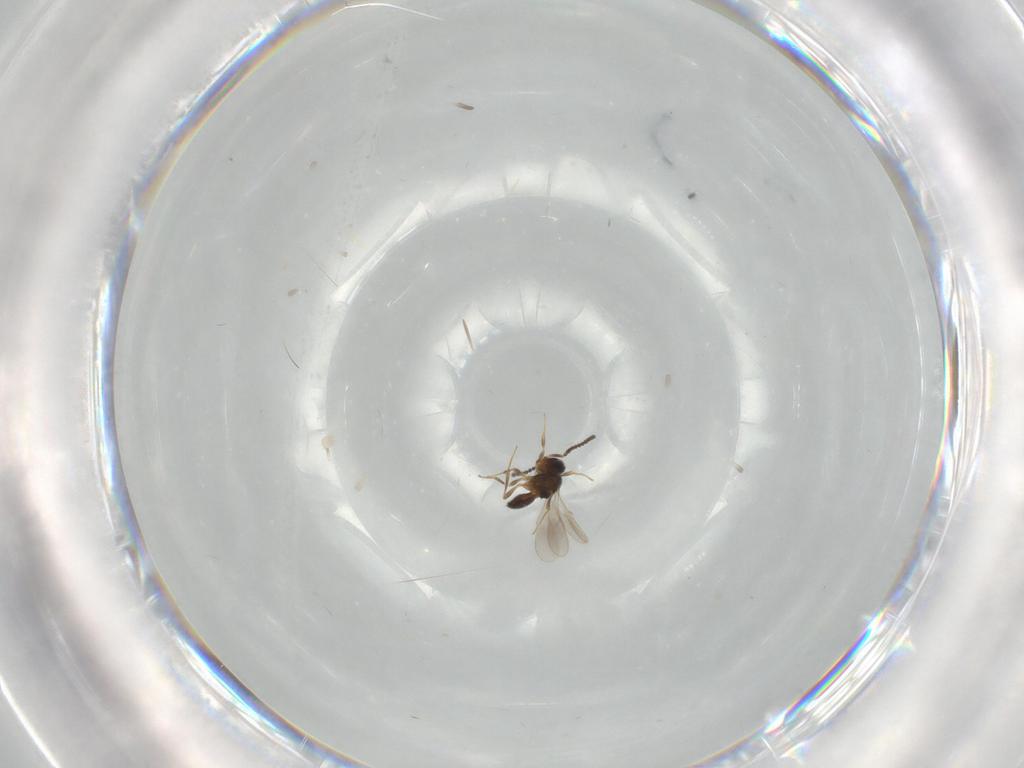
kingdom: Animalia
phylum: Arthropoda
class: Insecta
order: Hymenoptera
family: Scelionidae
